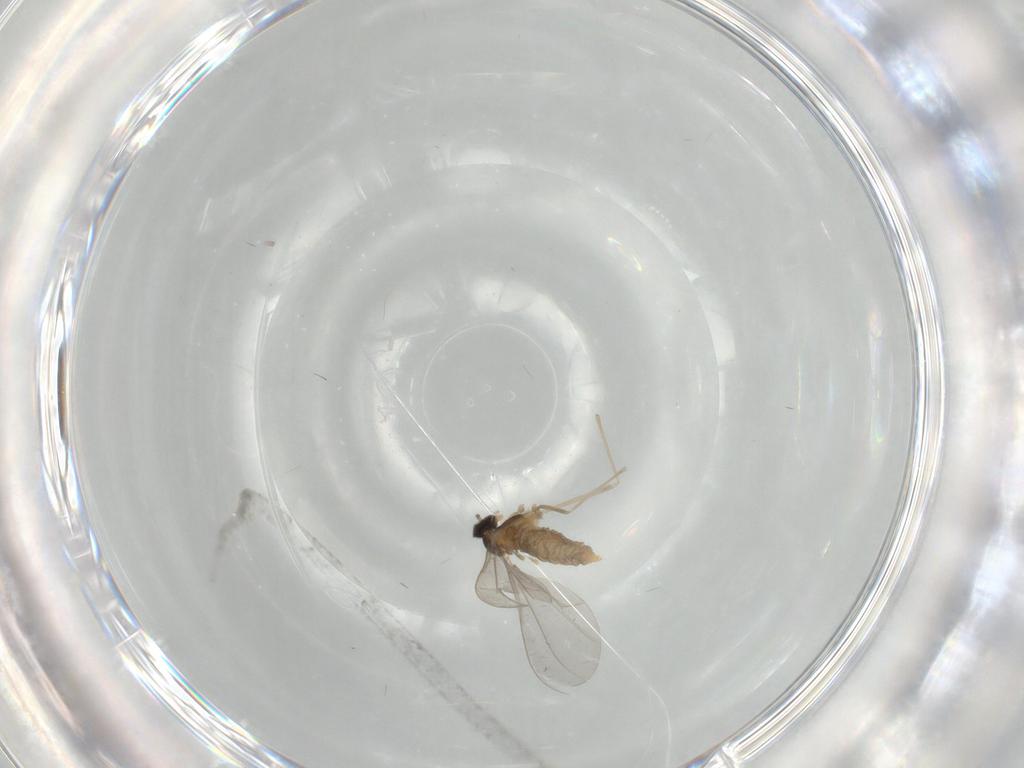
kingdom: Animalia
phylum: Arthropoda
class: Insecta
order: Diptera
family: Cecidomyiidae
